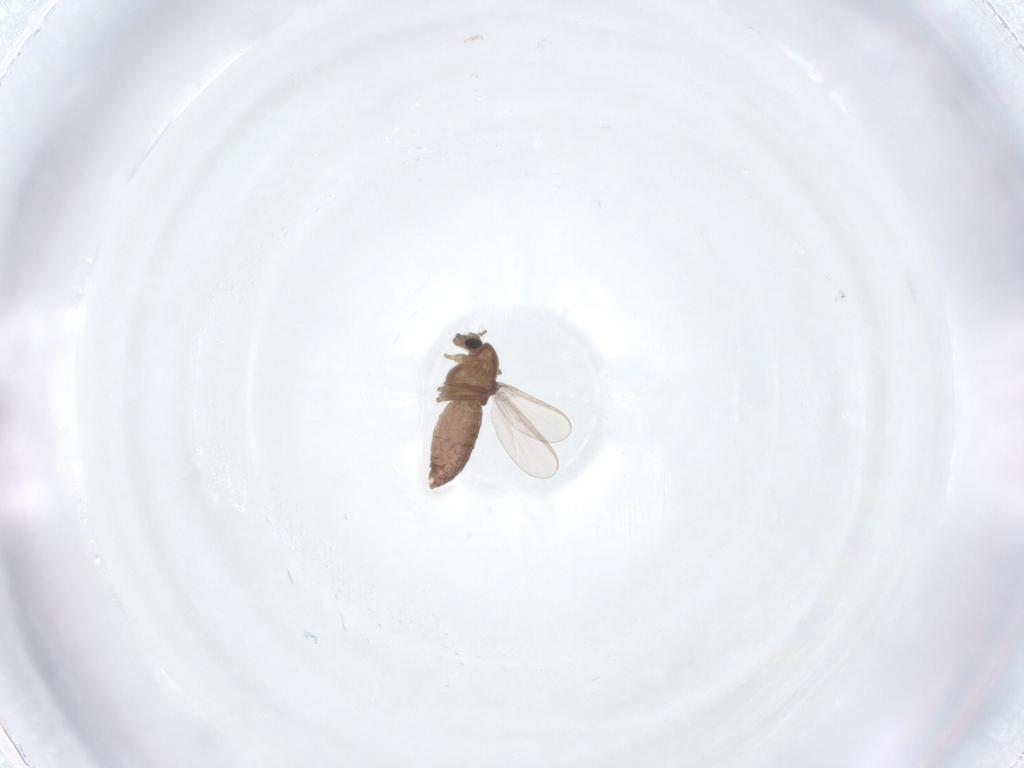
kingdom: Animalia
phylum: Arthropoda
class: Insecta
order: Diptera
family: Chironomidae
